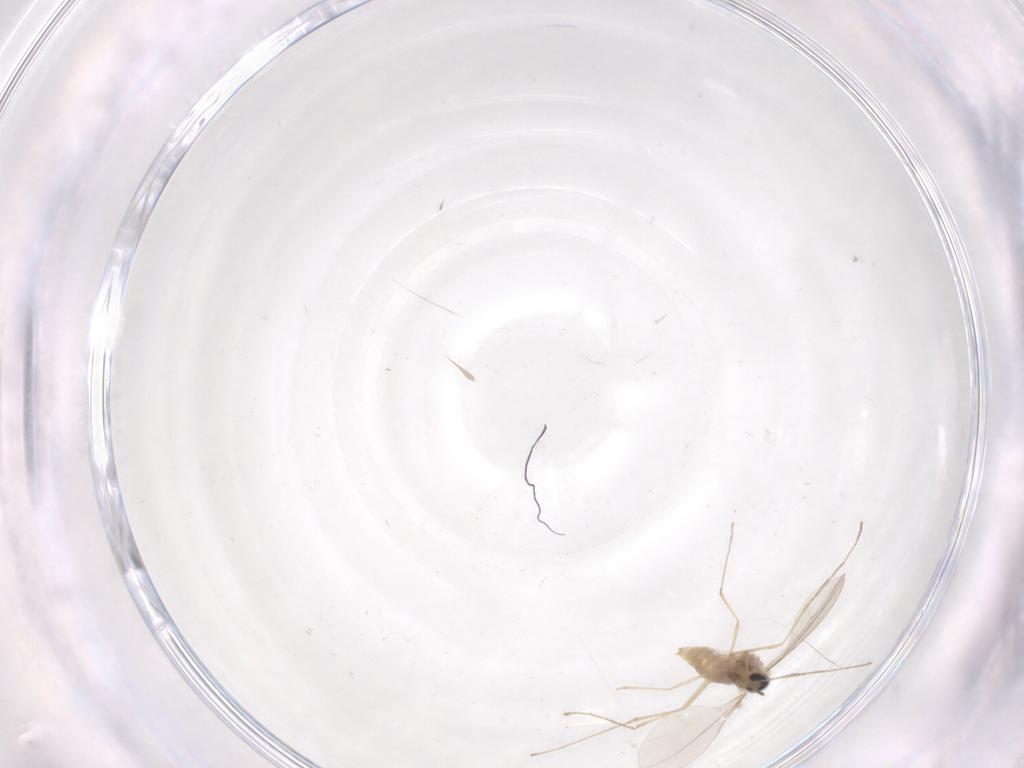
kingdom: Animalia
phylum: Arthropoda
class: Insecta
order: Diptera
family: Cecidomyiidae
